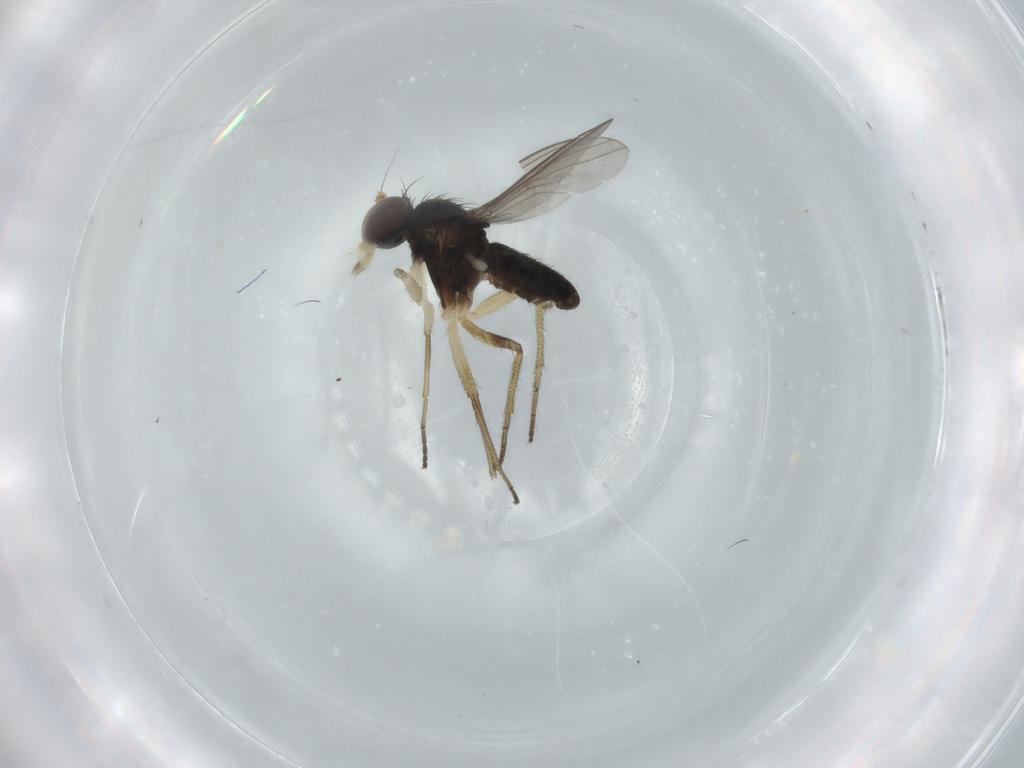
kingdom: Animalia
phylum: Arthropoda
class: Insecta
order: Diptera
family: Dolichopodidae
